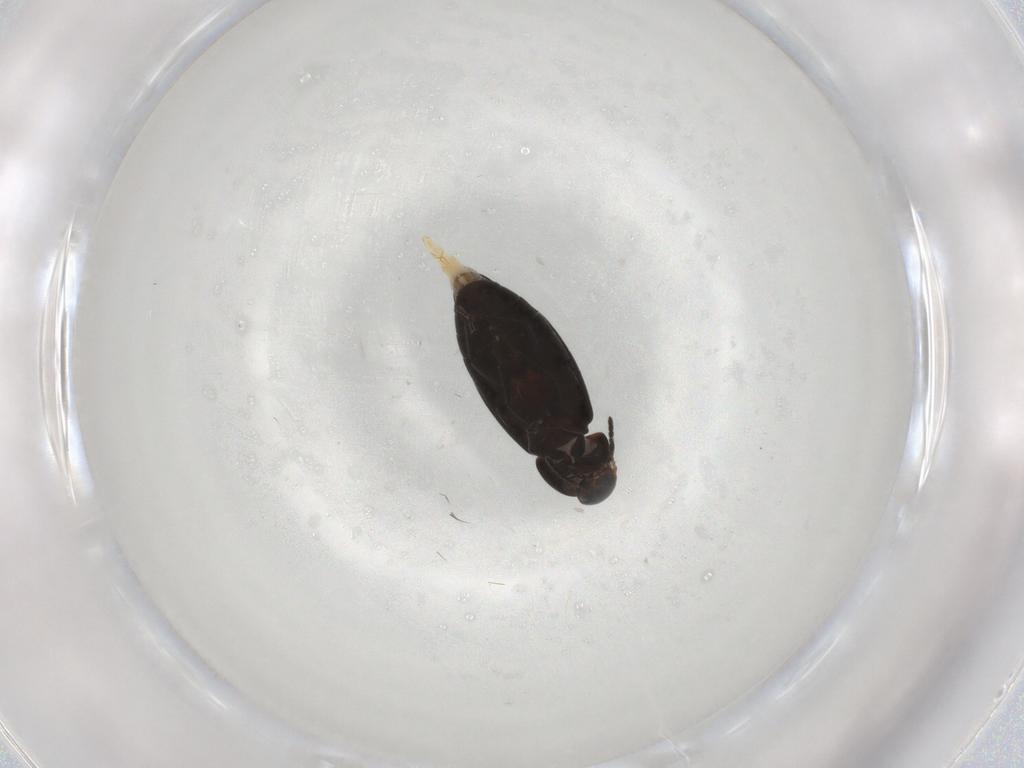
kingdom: Animalia
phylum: Arthropoda
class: Insecta
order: Coleoptera
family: Scraptiidae
